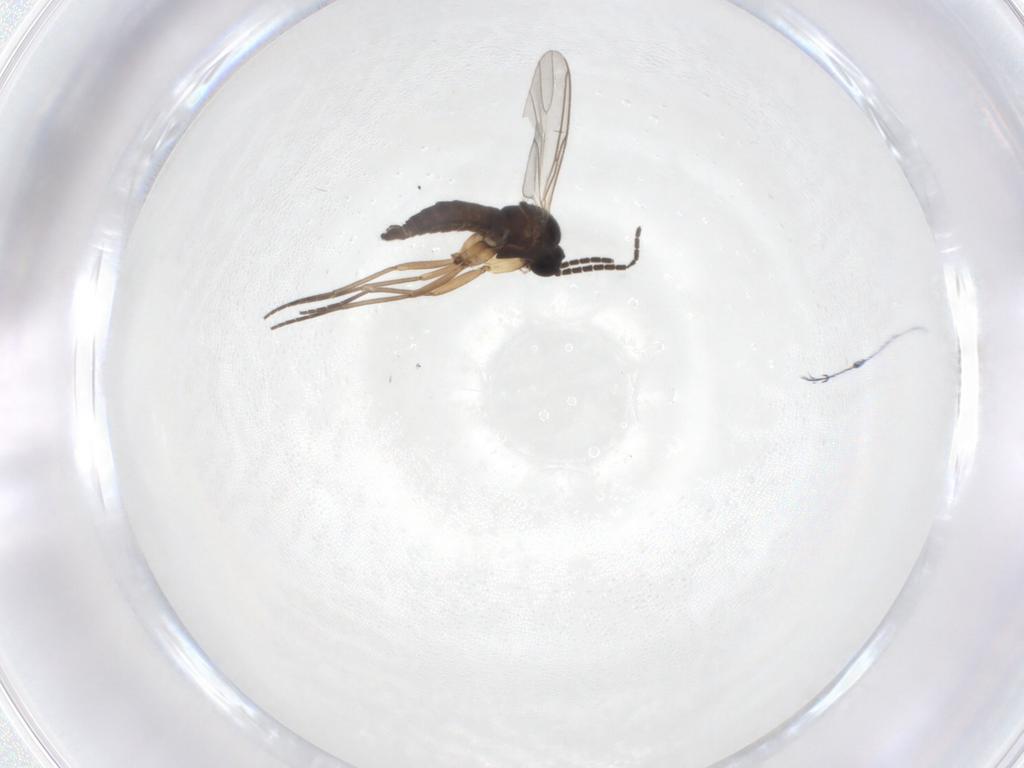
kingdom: Animalia
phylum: Arthropoda
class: Insecta
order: Diptera
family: Sciaridae
